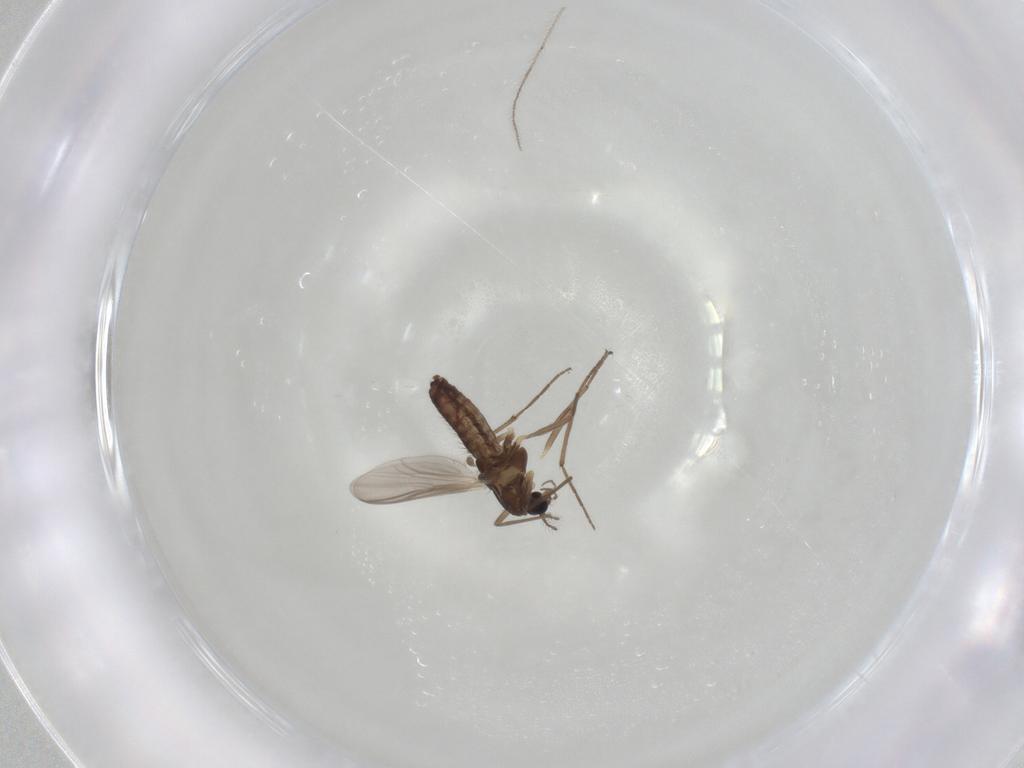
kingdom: Animalia
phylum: Arthropoda
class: Insecta
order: Diptera
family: Chironomidae
